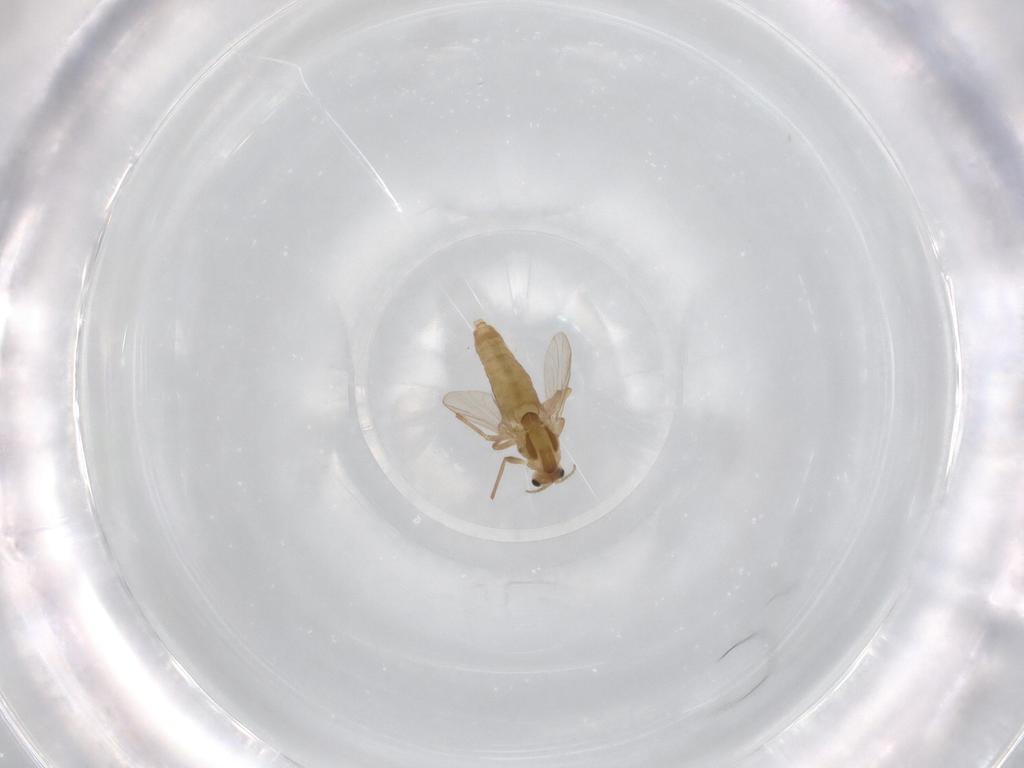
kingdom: Animalia
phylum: Arthropoda
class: Insecta
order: Diptera
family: Chironomidae
